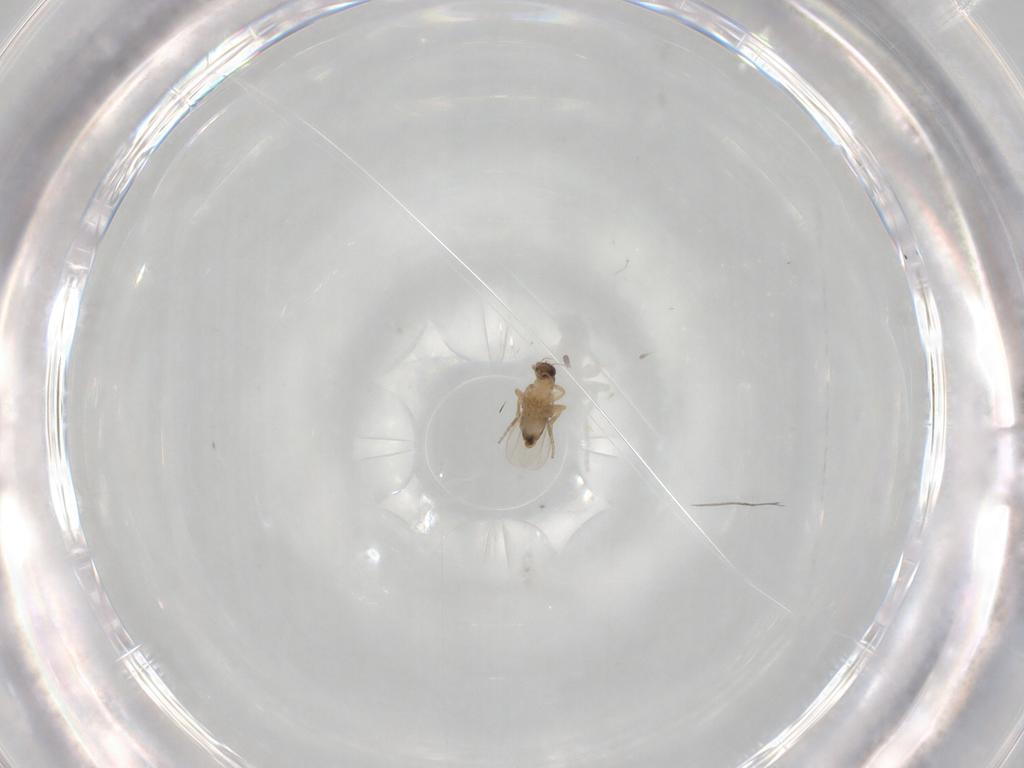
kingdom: Animalia
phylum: Arthropoda
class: Insecta
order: Diptera
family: Phoridae
